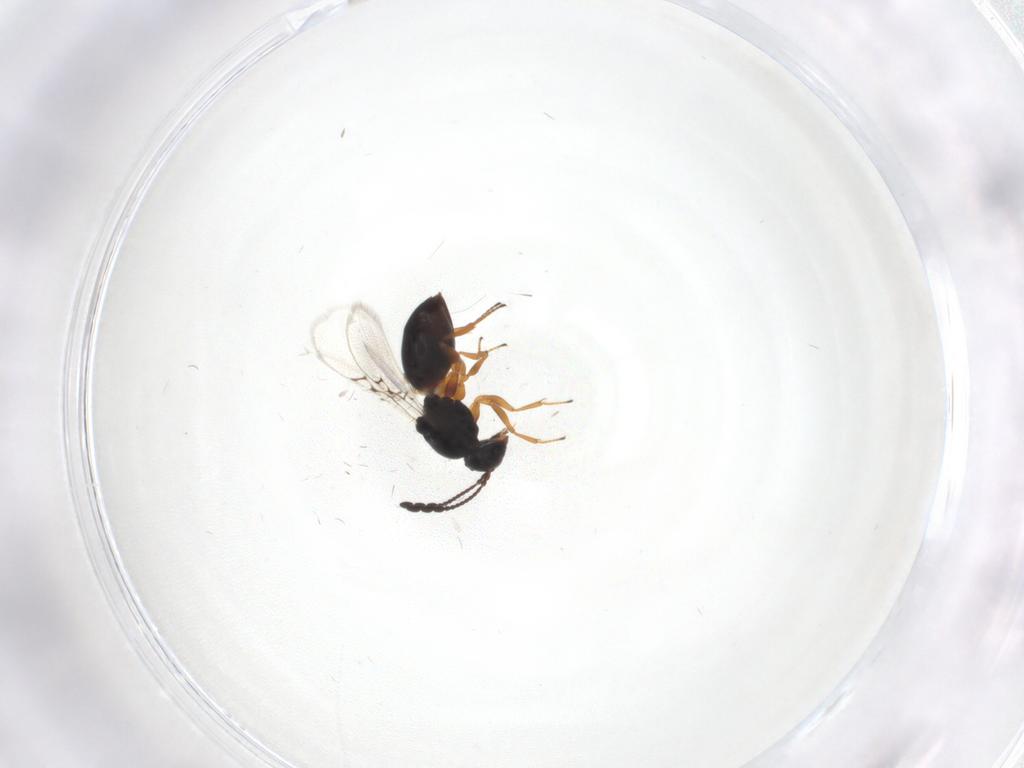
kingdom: Animalia
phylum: Arthropoda
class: Insecta
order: Hymenoptera
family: Figitidae
